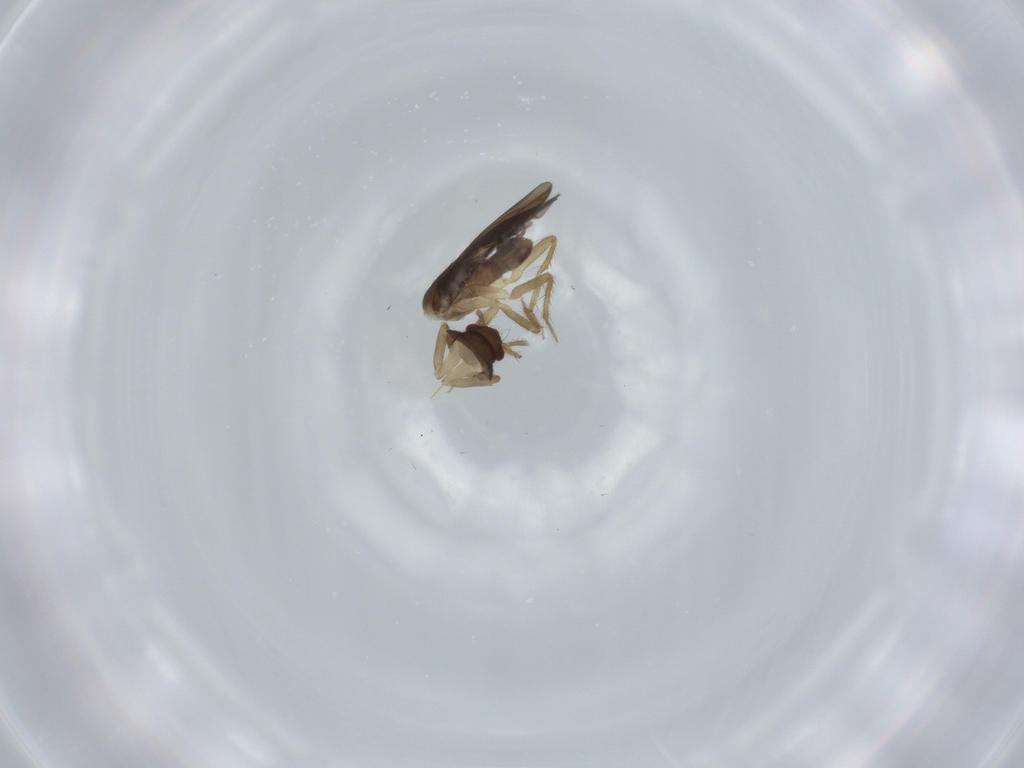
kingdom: Animalia
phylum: Arthropoda
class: Insecta
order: Hemiptera
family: Ceratocombidae
